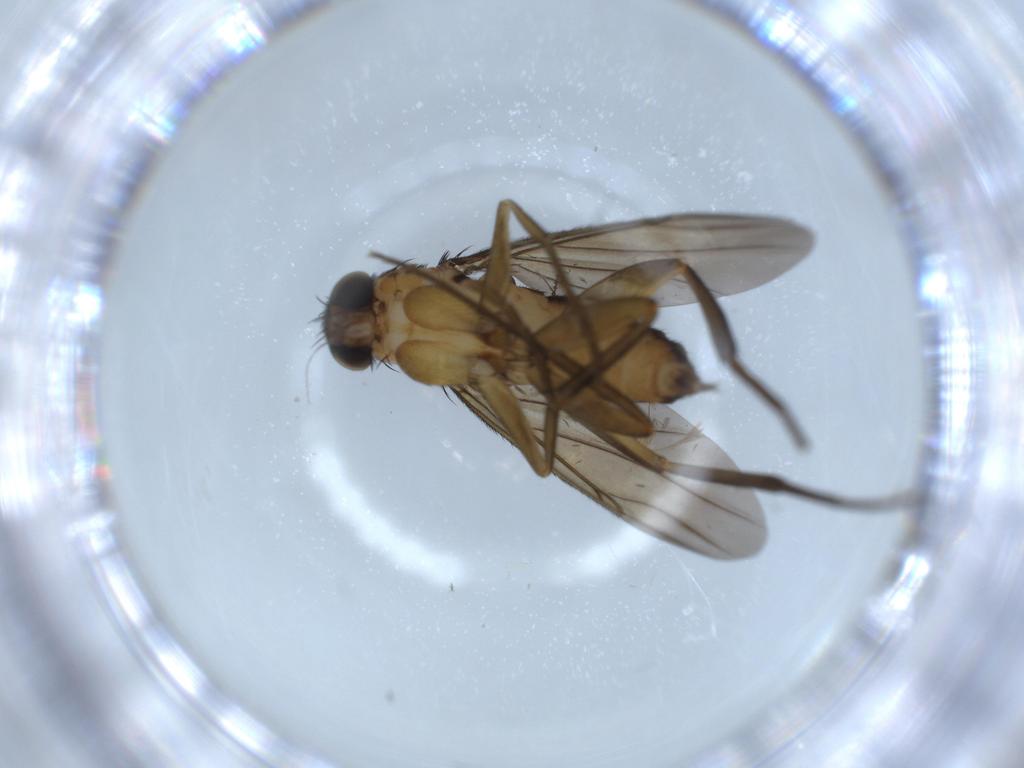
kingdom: Animalia
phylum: Arthropoda
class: Insecta
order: Diptera
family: Phoridae
